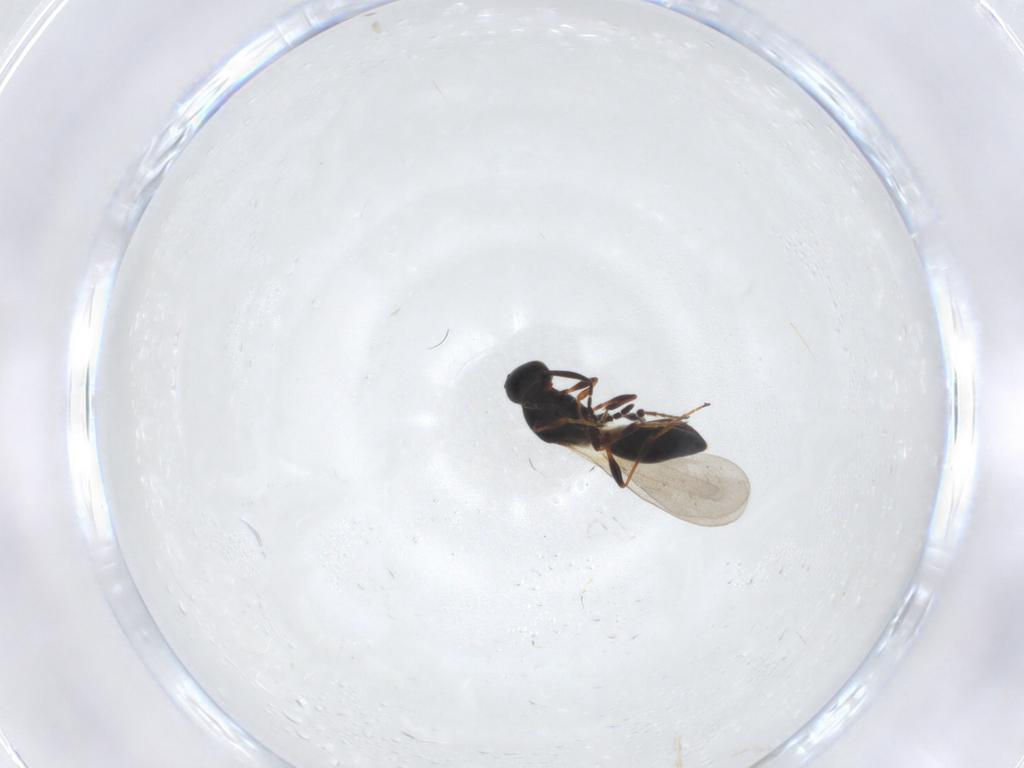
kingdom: Animalia
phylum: Arthropoda
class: Insecta
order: Hymenoptera
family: Platygastridae
